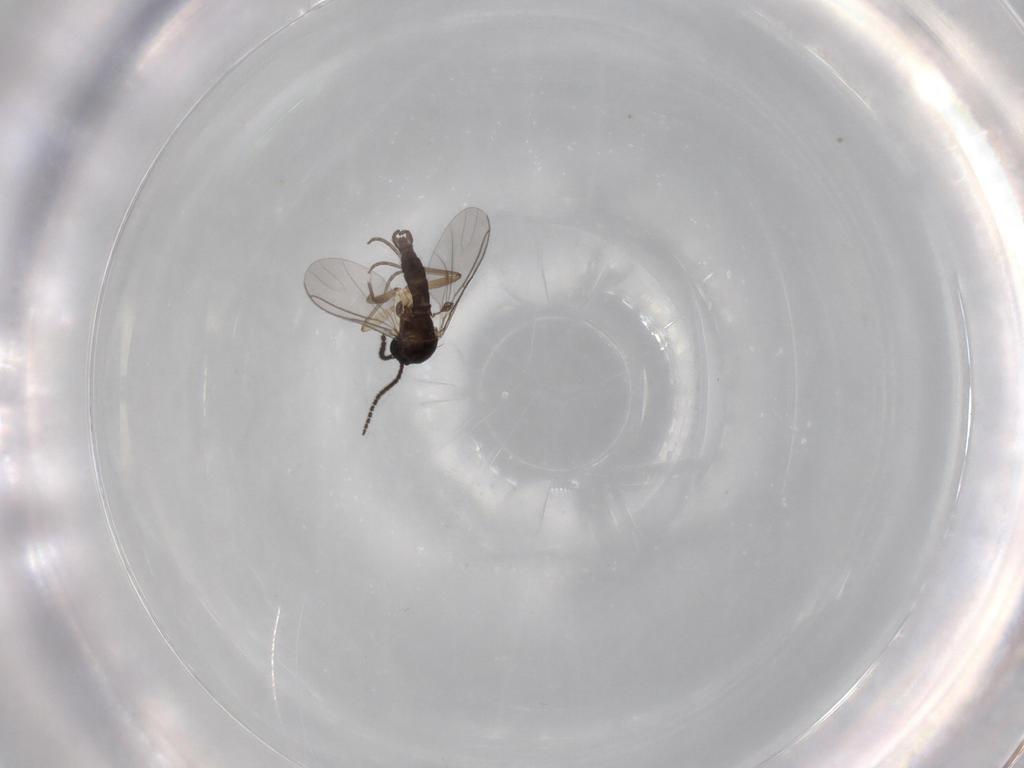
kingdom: Animalia
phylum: Arthropoda
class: Insecta
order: Diptera
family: Sciaridae
